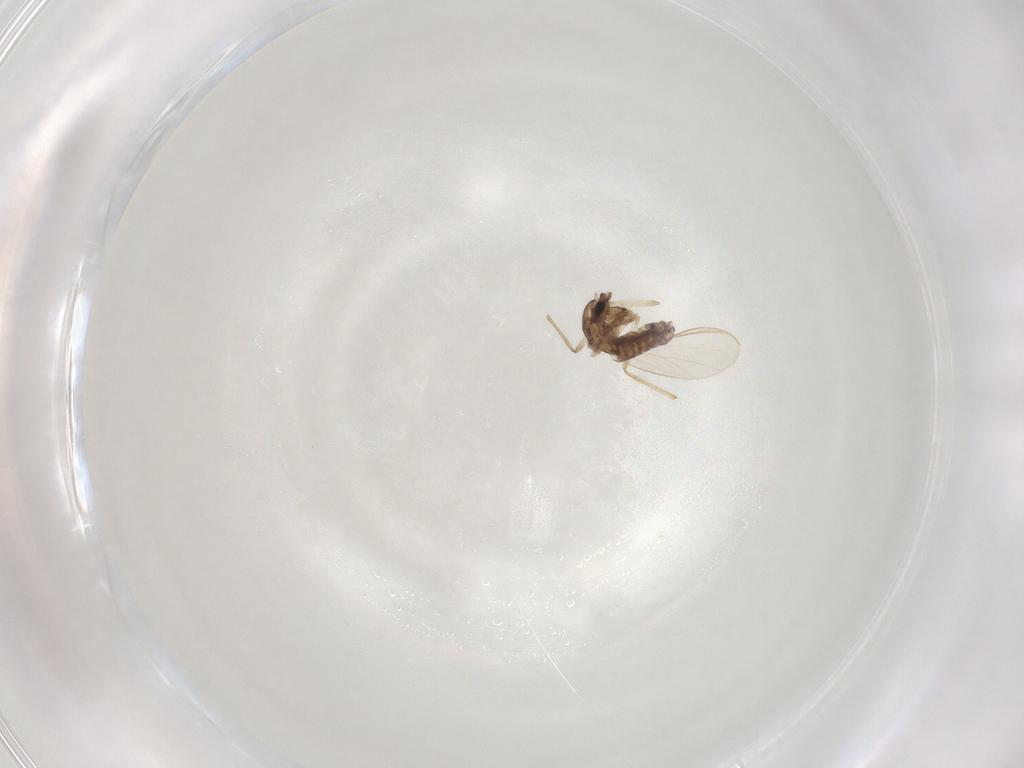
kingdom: Animalia
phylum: Arthropoda
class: Insecta
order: Diptera
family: Chironomidae
